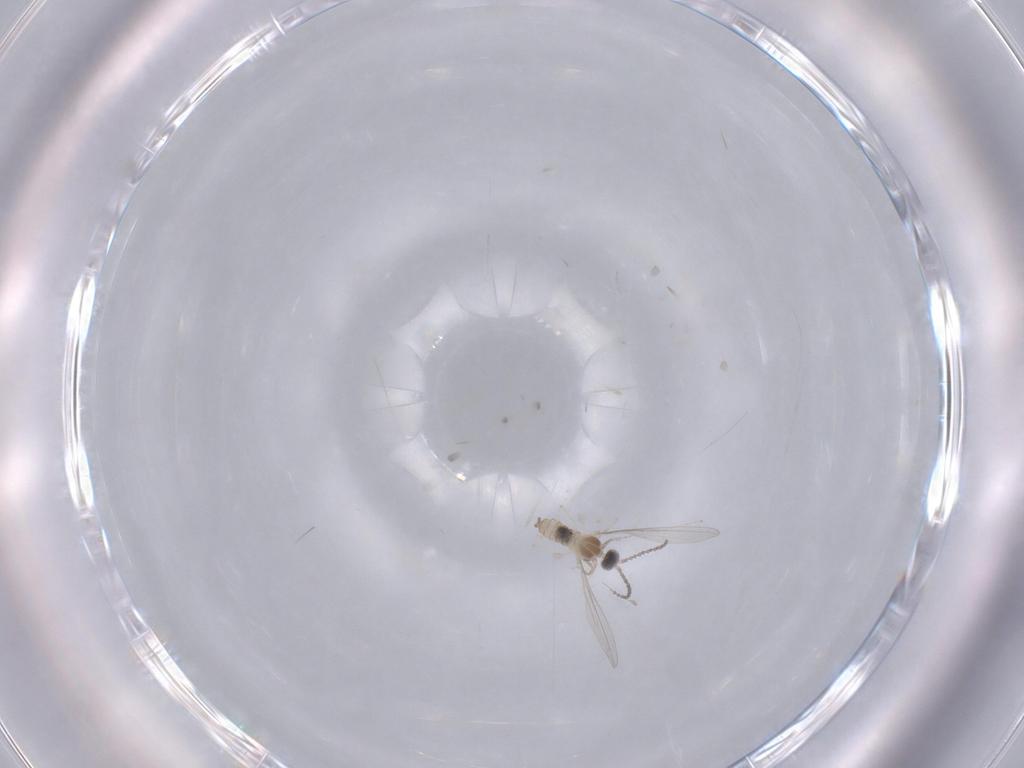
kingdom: Animalia
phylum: Arthropoda
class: Insecta
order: Diptera
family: Cecidomyiidae
